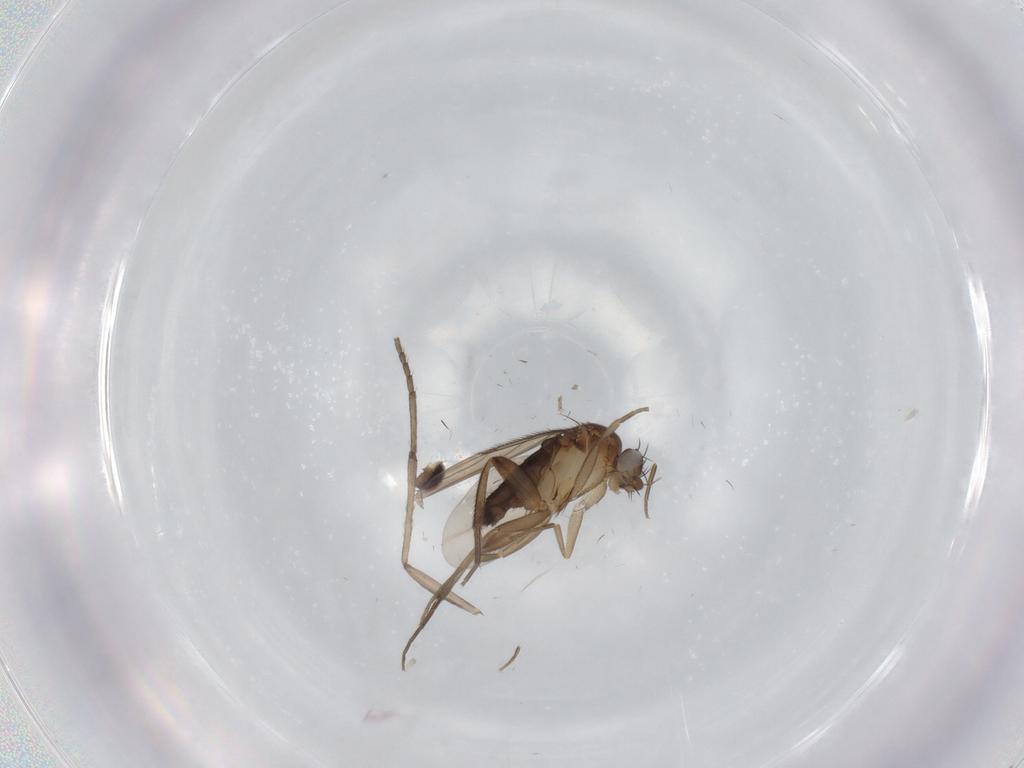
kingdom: Animalia
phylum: Arthropoda
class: Insecta
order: Diptera
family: Psychodidae
